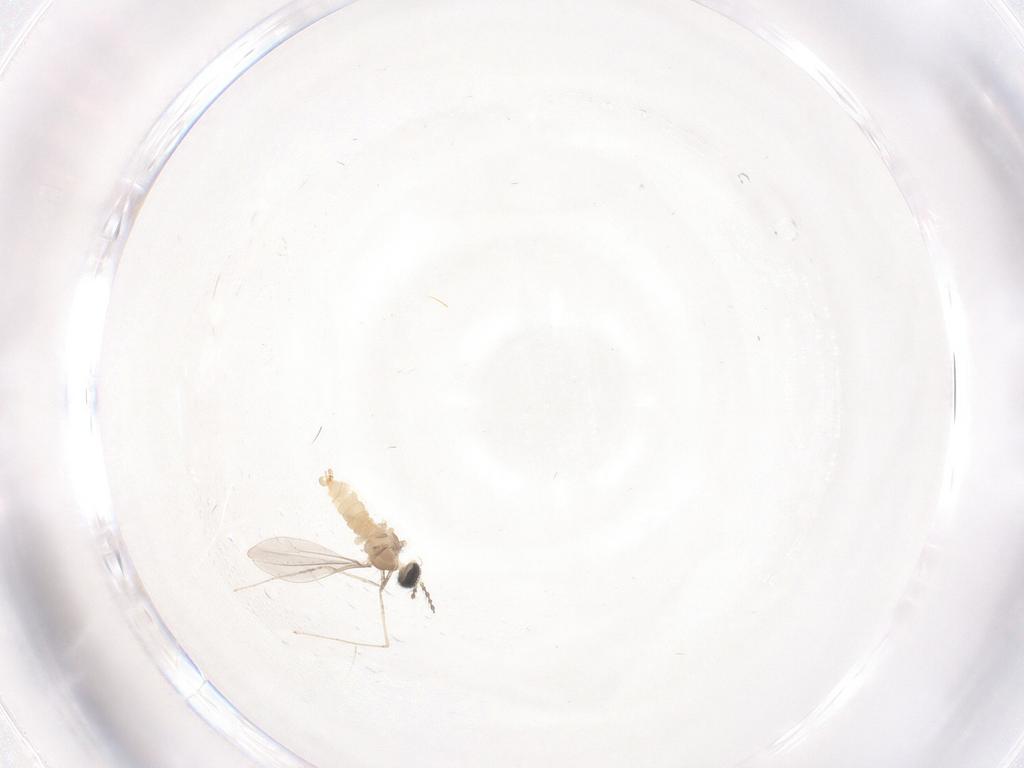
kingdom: Animalia
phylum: Arthropoda
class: Insecta
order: Diptera
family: Cecidomyiidae
